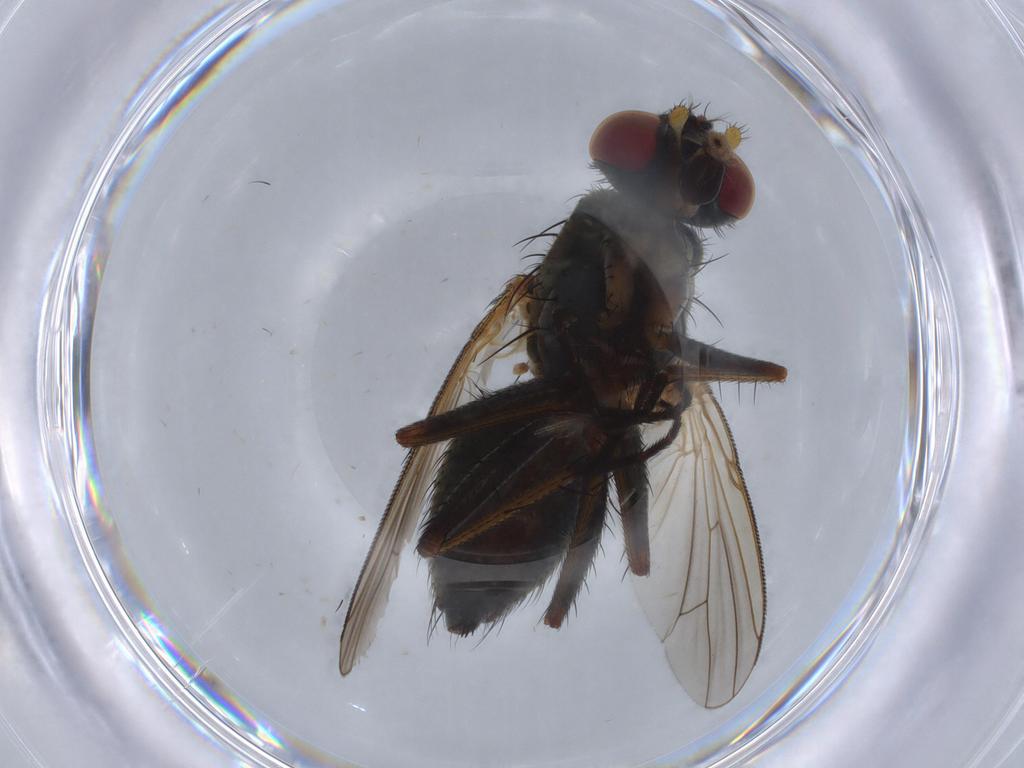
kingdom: Animalia
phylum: Arthropoda
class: Insecta
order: Diptera
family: Muscidae
